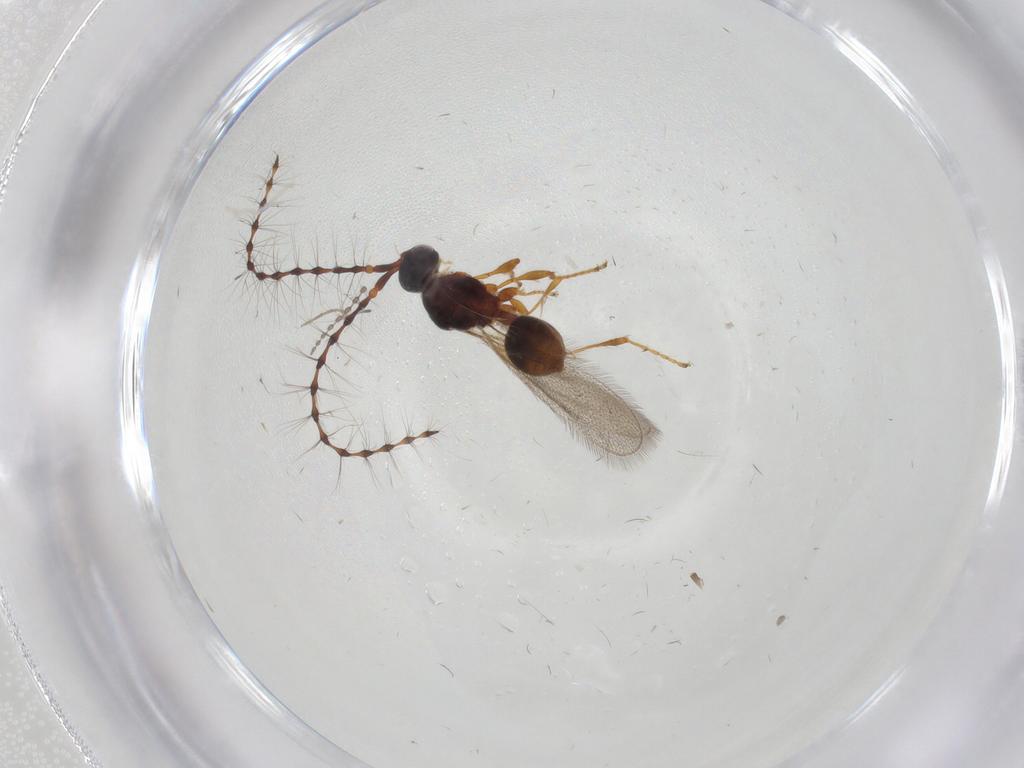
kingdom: Animalia
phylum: Arthropoda
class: Insecta
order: Hymenoptera
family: Diapriidae
